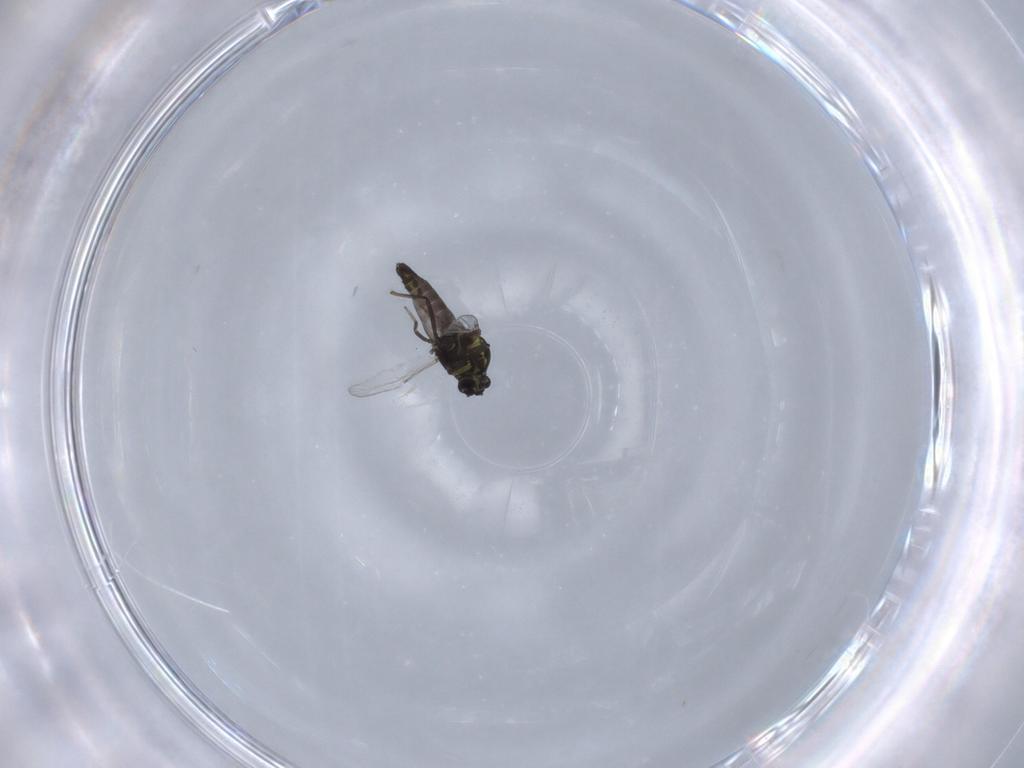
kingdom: Animalia
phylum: Arthropoda
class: Insecta
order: Diptera
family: Ceratopogonidae
